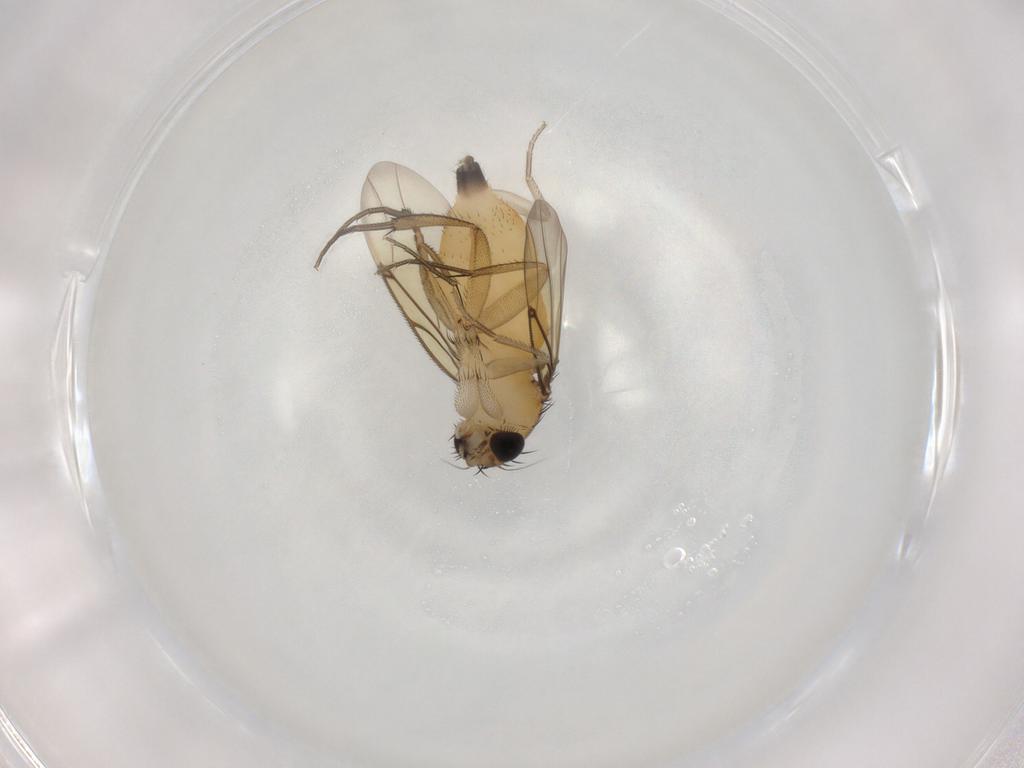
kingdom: Animalia
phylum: Arthropoda
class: Insecta
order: Diptera
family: Phoridae
